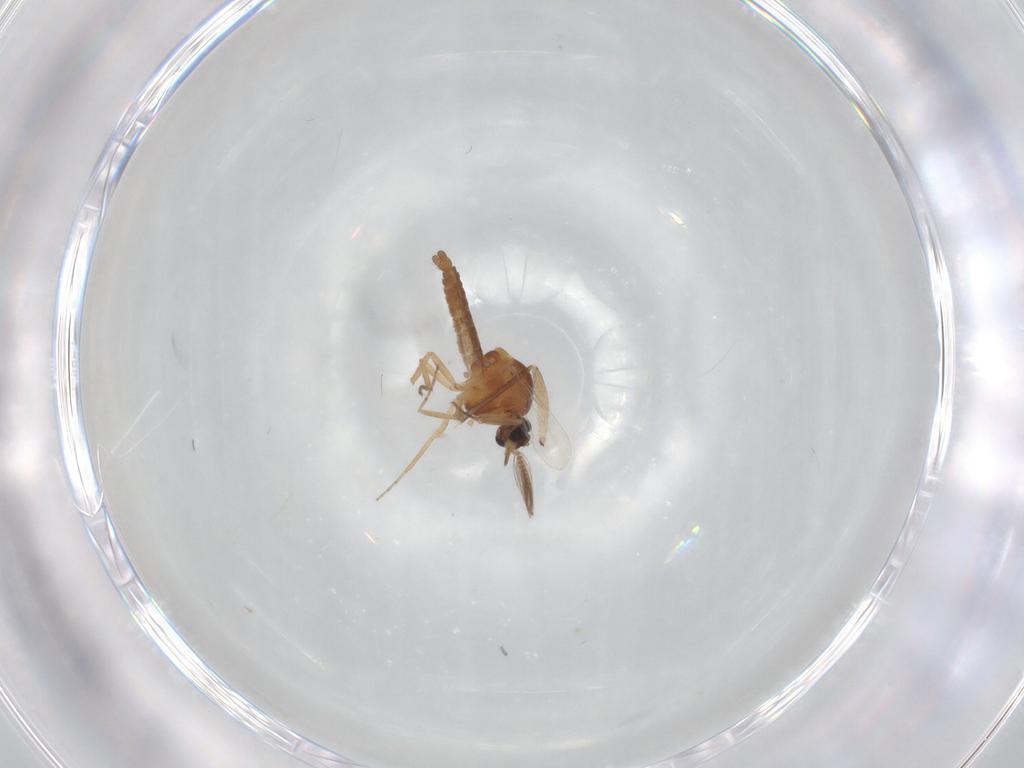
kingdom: Animalia
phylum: Arthropoda
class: Insecta
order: Diptera
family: Ceratopogonidae
